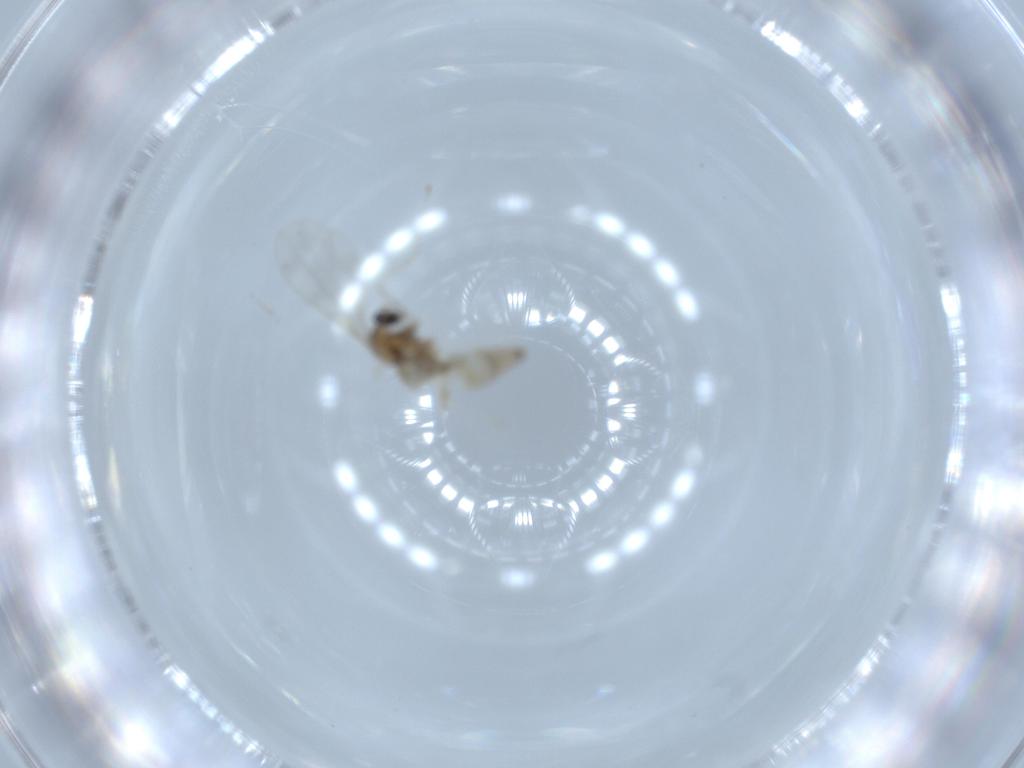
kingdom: Animalia
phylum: Arthropoda
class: Insecta
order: Diptera
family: Cecidomyiidae
